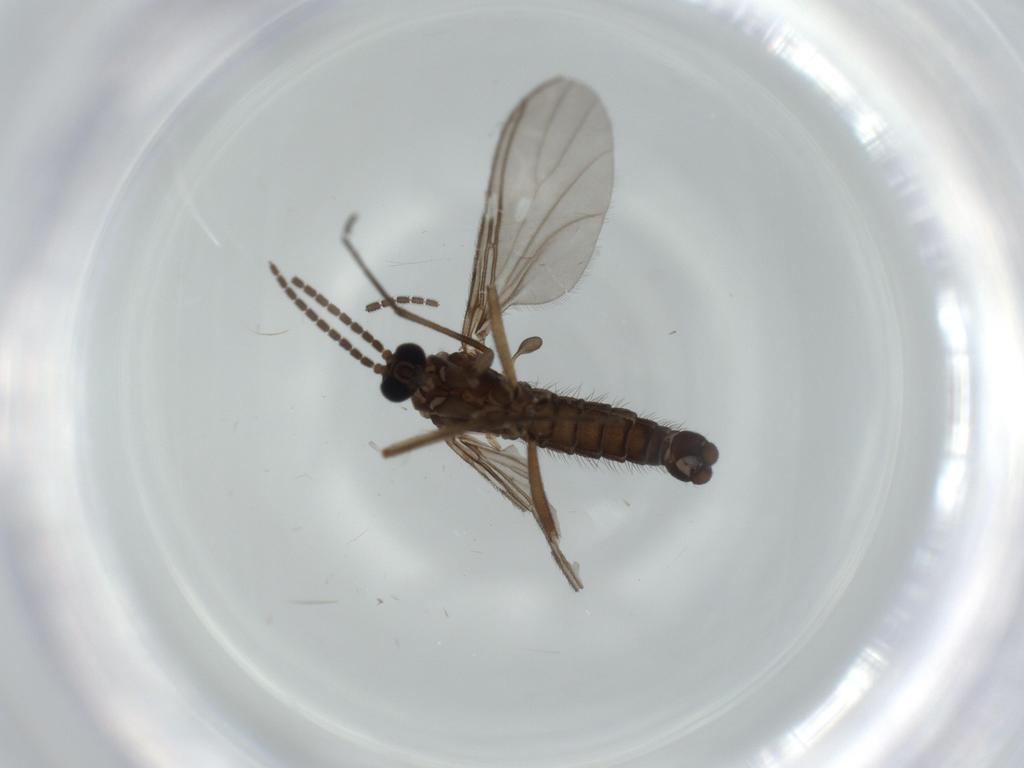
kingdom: Animalia
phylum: Arthropoda
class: Insecta
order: Diptera
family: Sciaridae
